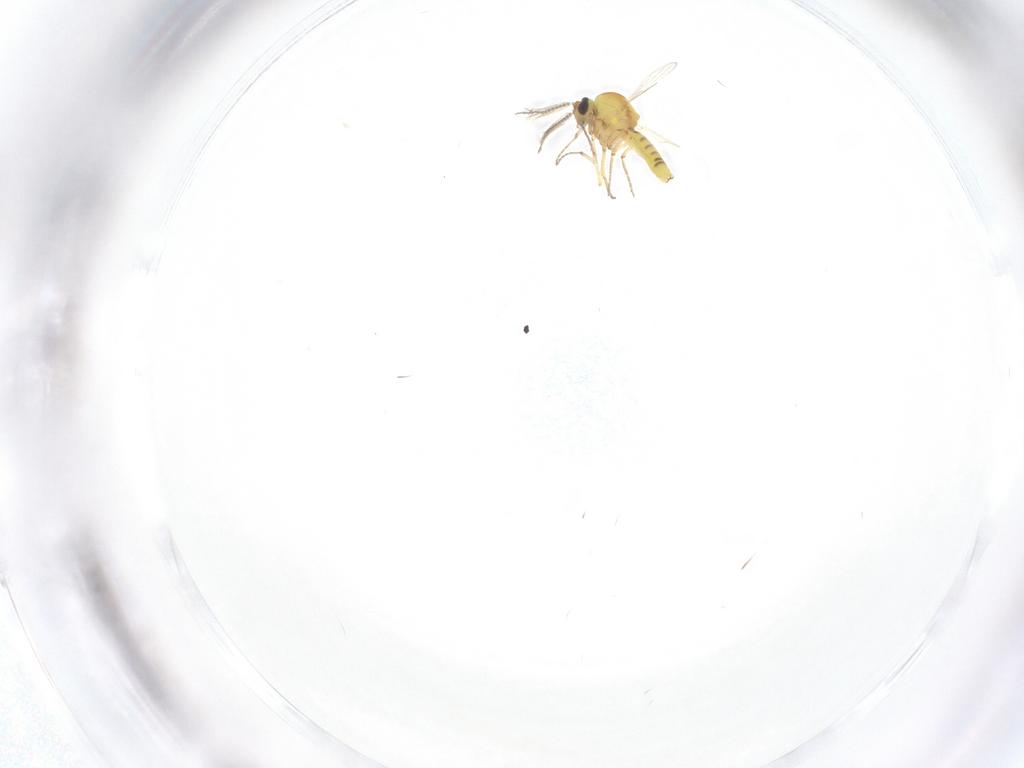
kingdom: Animalia
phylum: Arthropoda
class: Insecta
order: Diptera
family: Ceratopogonidae
